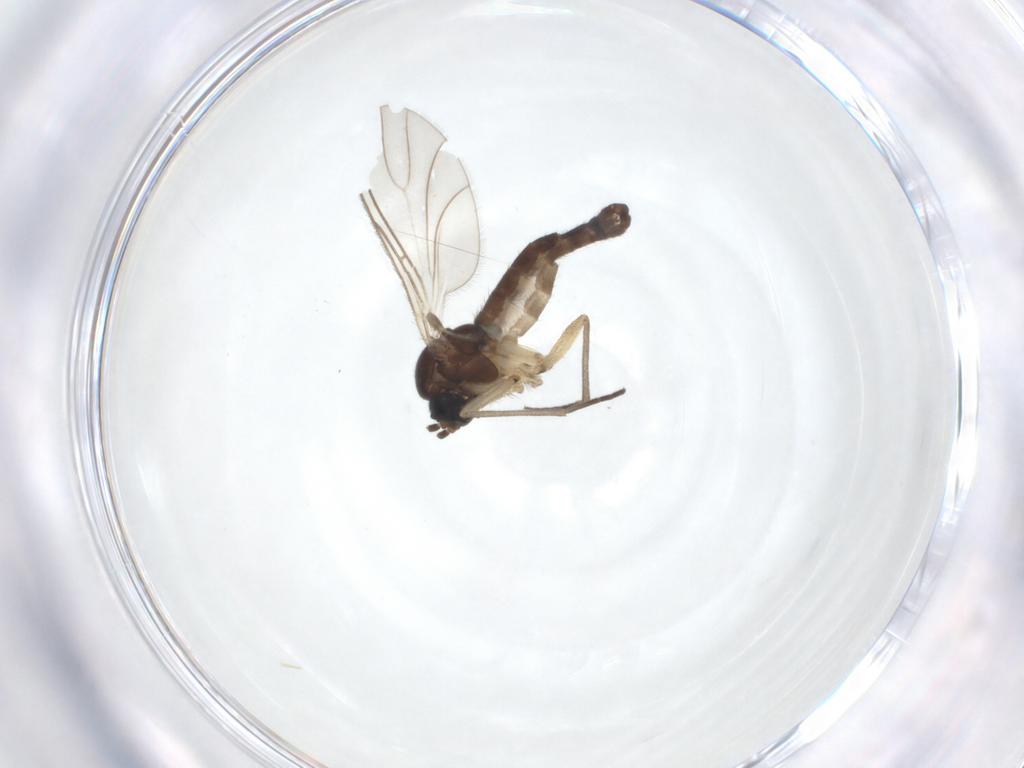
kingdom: Animalia
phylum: Arthropoda
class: Insecta
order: Diptera
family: Sciaridae
